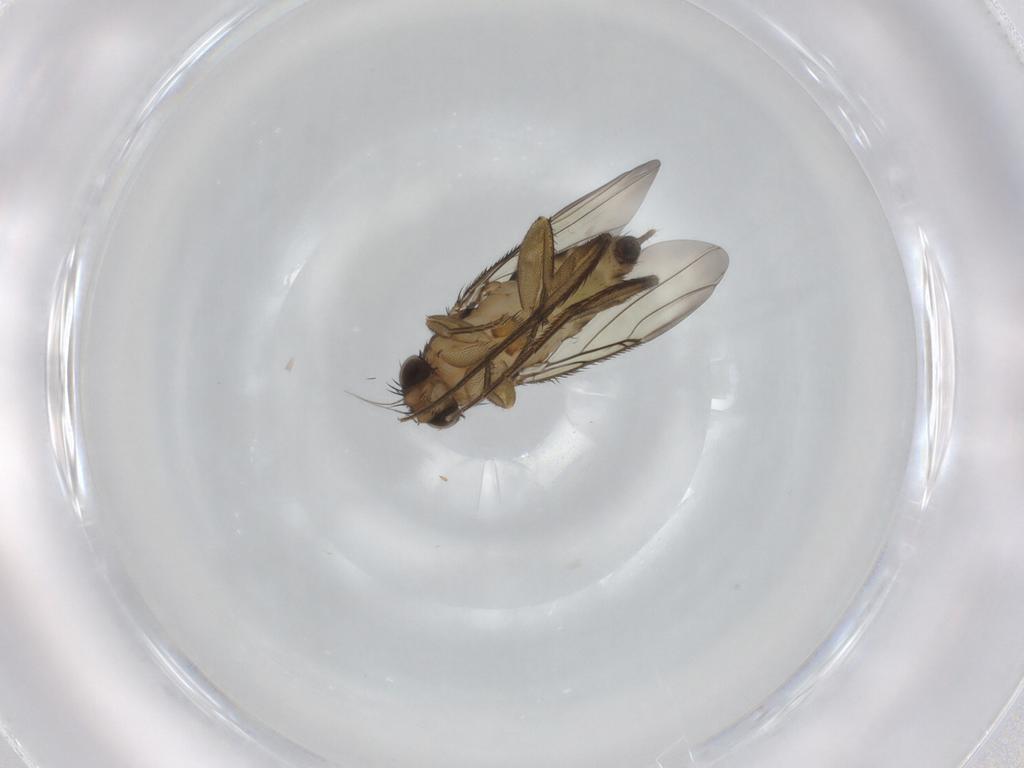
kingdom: Animalia
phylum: Arthropoda
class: Insecta
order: Diptera
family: Phoridae
